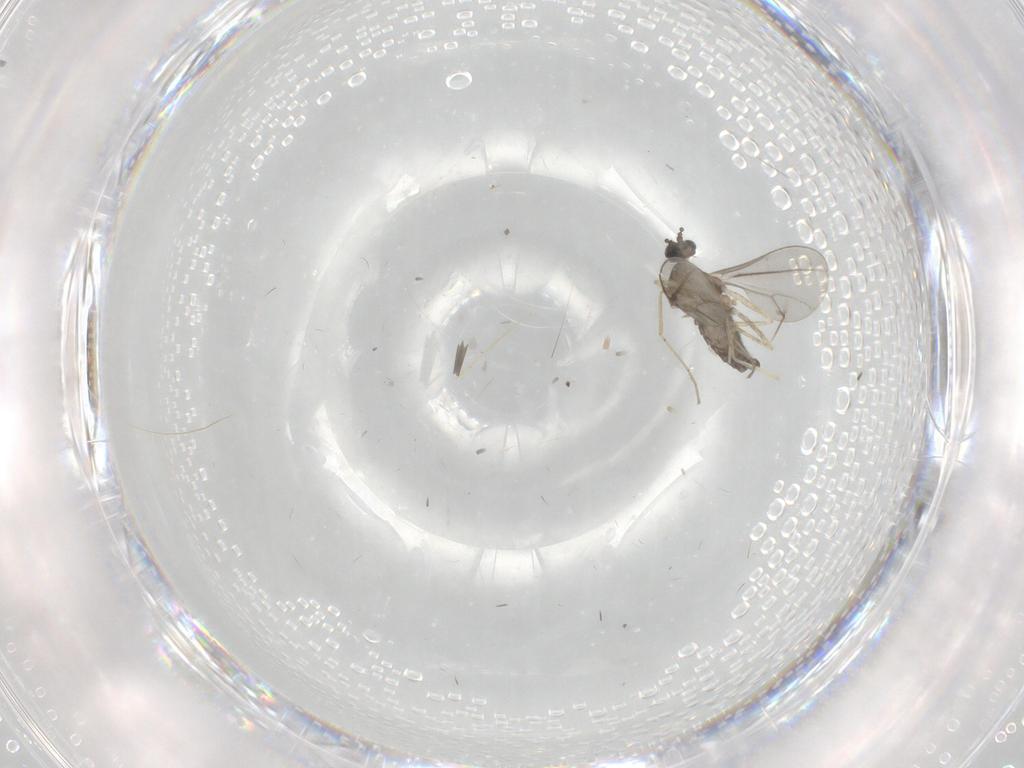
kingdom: Animalia
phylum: Arthropoda
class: Insecta
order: Diptera
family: Cecidomyiidae
